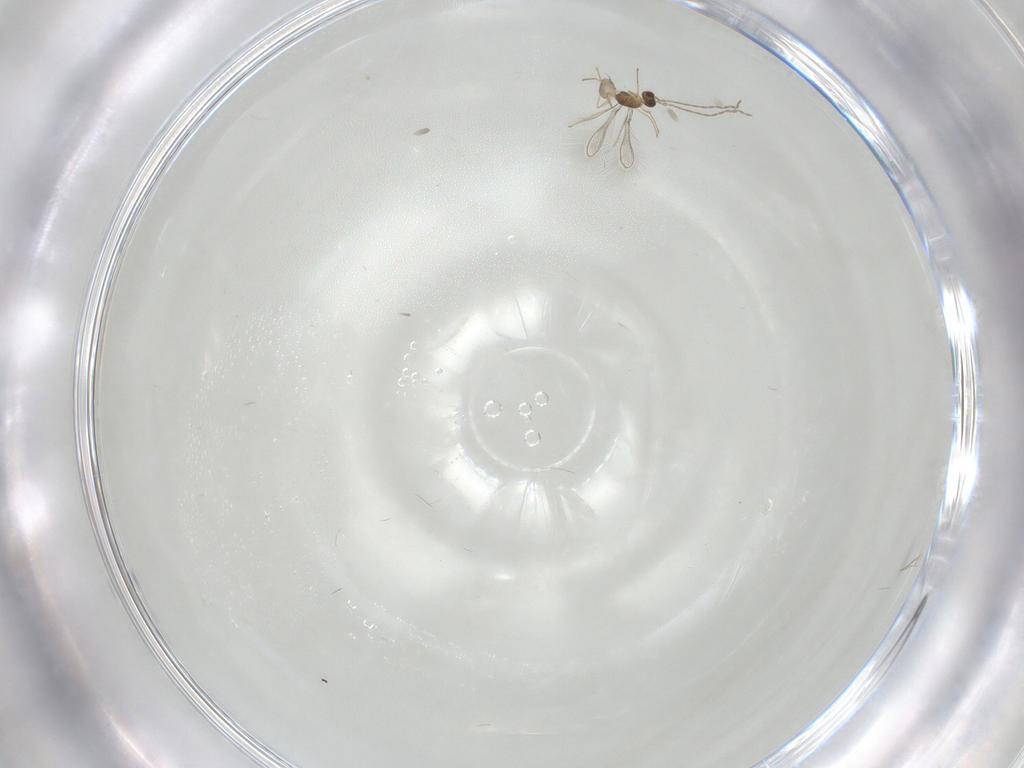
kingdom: Animalia
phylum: Arthropoda
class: Insecta
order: Hymenoptera
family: Mymaridae
